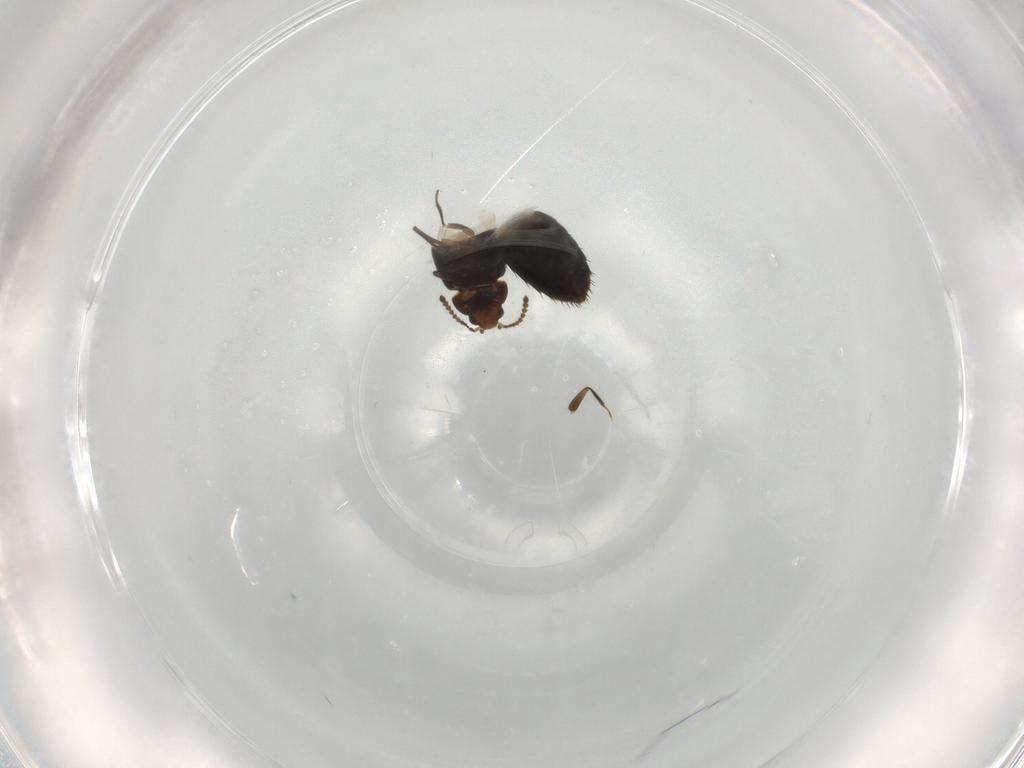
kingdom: Animalia
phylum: Arthropoda
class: Insecta
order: Coleoptera
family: Staphylinidae
